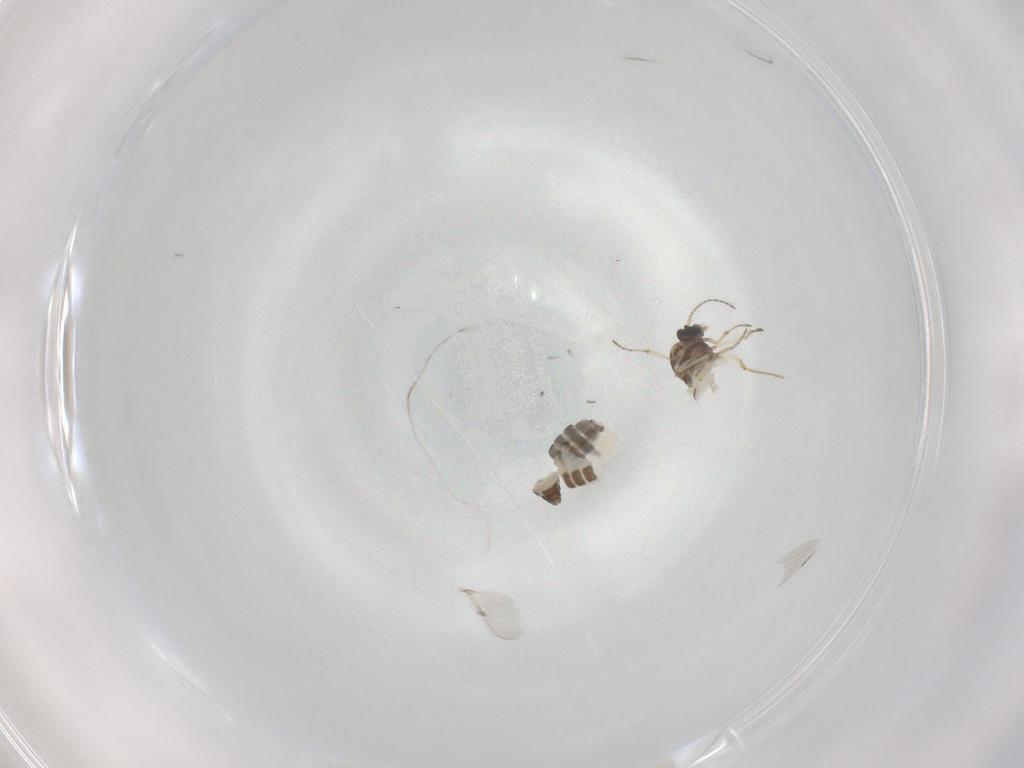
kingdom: Animalia
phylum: Arthropoda
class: Insecta
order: Diptera
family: Ceratopogonidae
